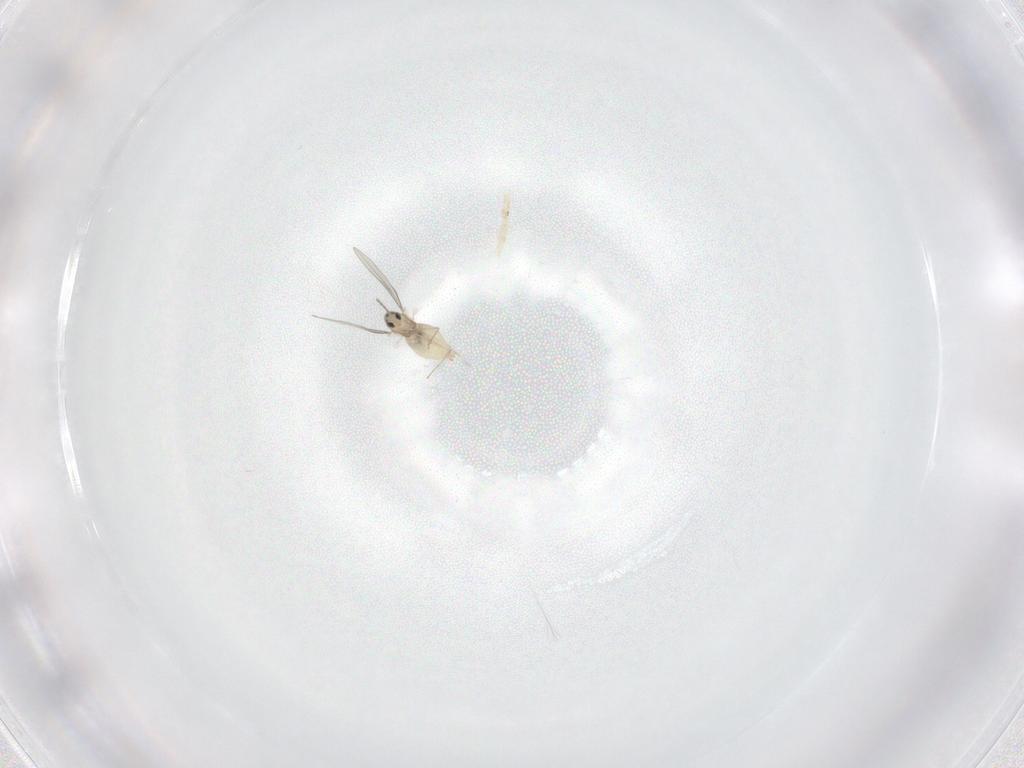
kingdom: Animalia
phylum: Arthropoda
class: Insecta
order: Diptera
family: Cecidomyiidae
